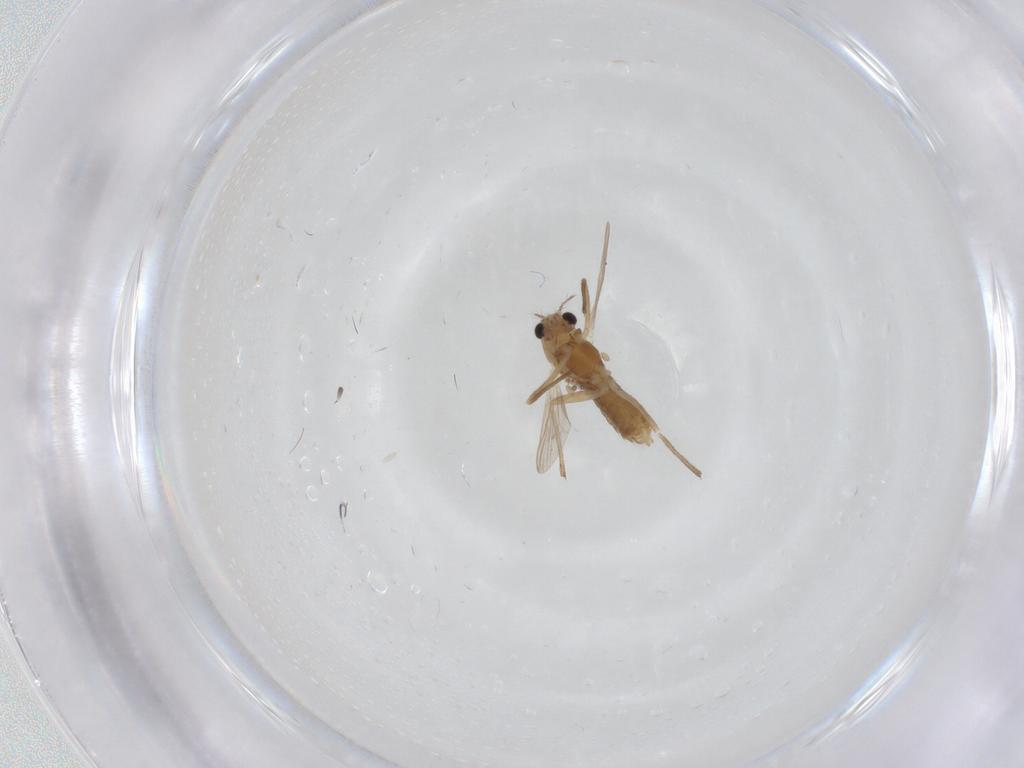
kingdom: Animalia
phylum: Arthropoda
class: Insecta
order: Diptera
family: Chironomidae
